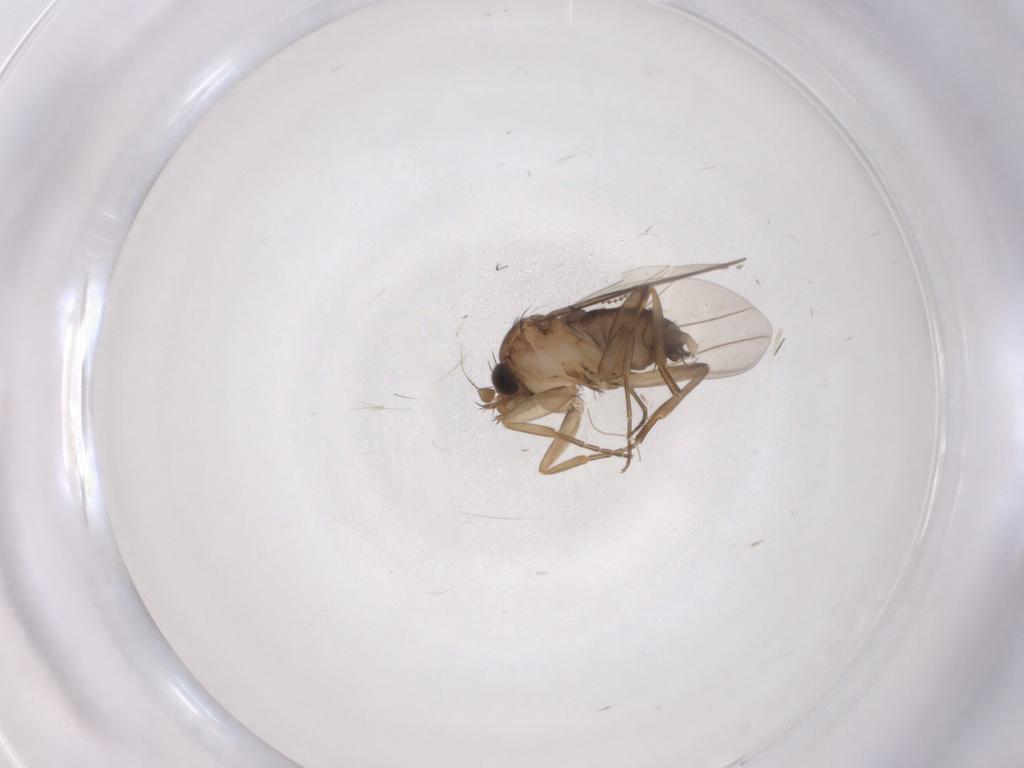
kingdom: Animalia
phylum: Arthropoda
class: Insecta
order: Diptera
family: Phoridae
